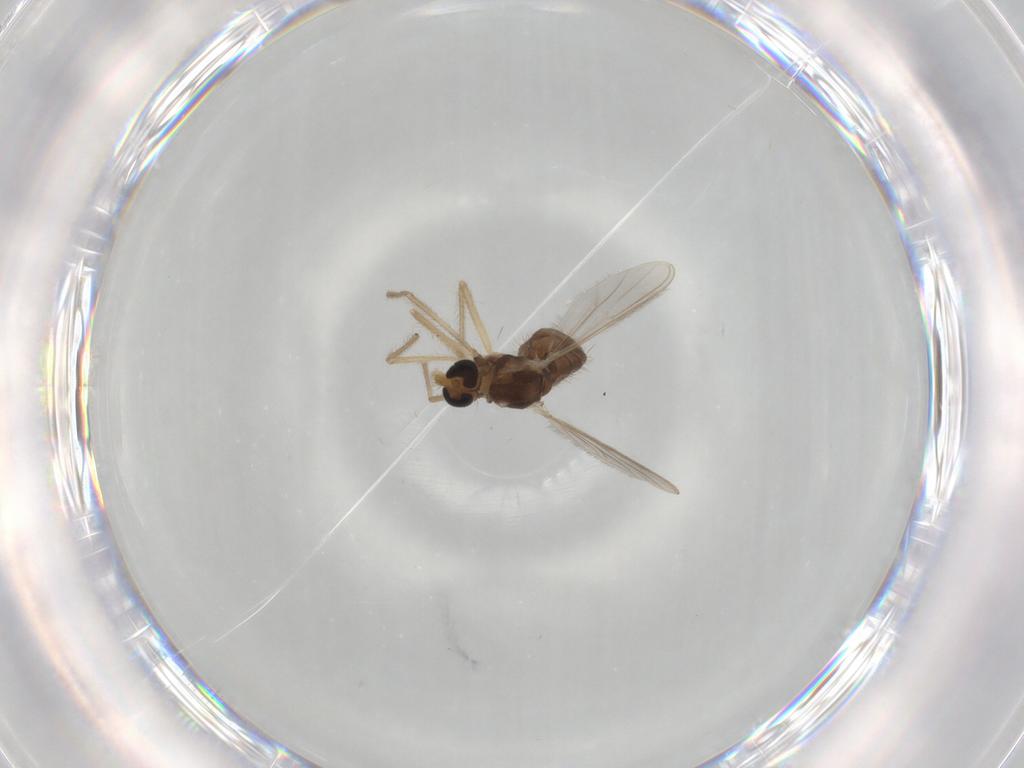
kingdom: Animalia
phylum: Arthropoda
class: Insecta
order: Diptera
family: Chironomidae
